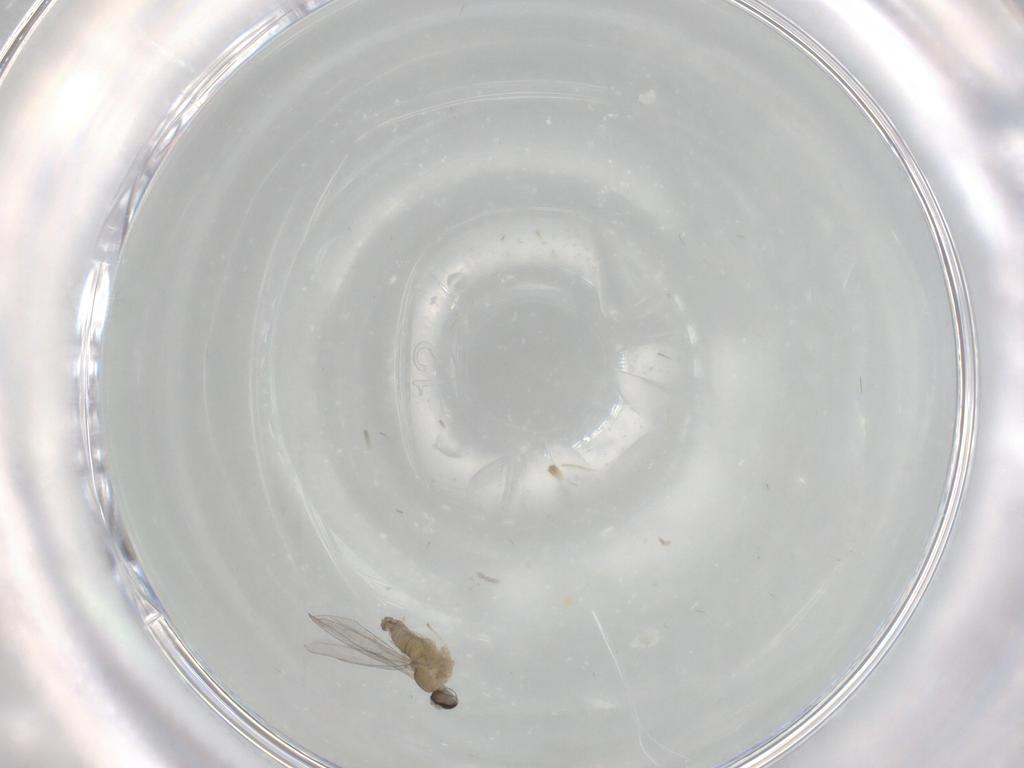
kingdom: Animalia
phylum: Arthropoda
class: Insecta
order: Diptera
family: Cecidomyiidae
